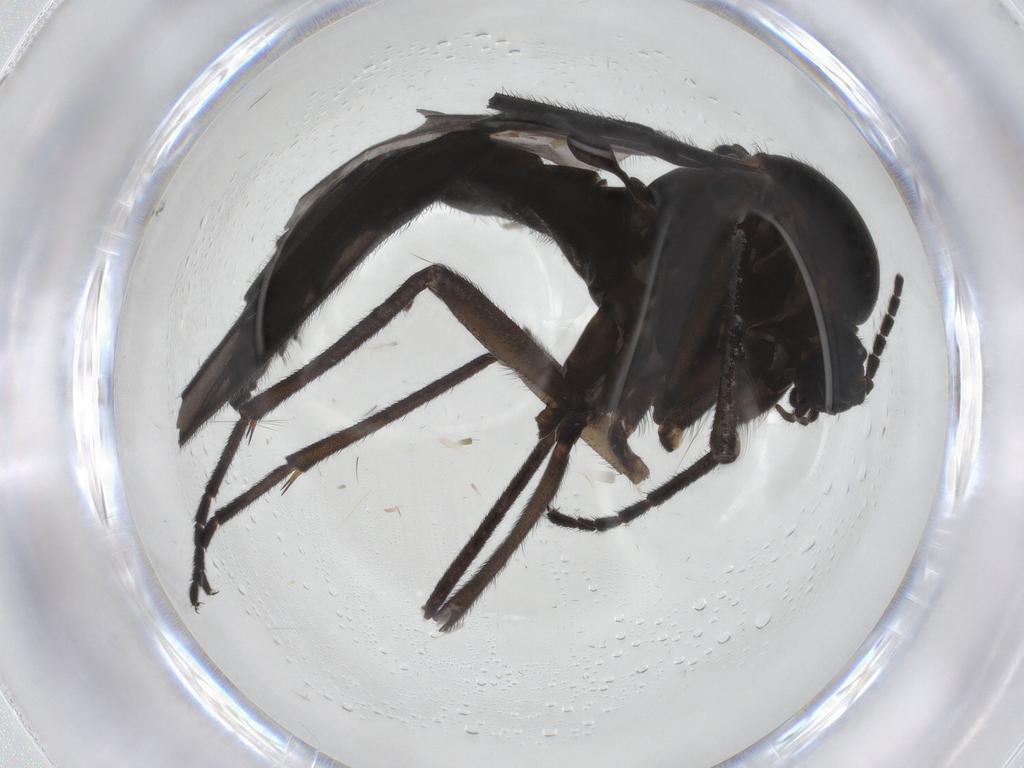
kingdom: Animalia
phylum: Arthropoda
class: Insecta
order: Diptera
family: Sciaridae
